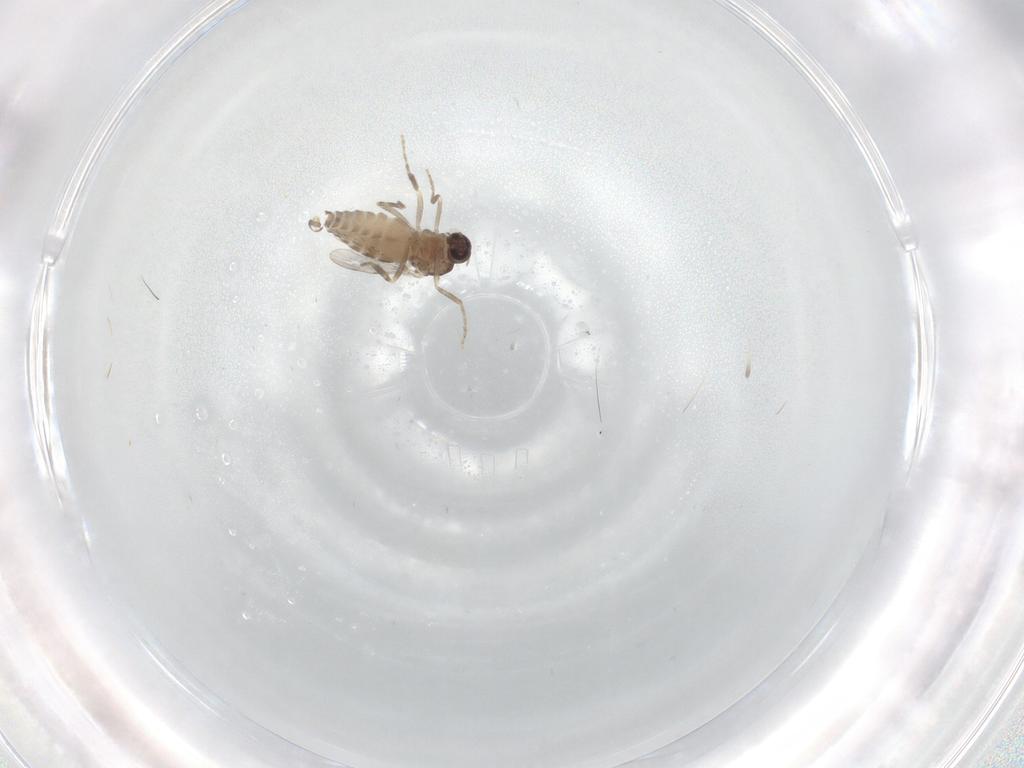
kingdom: Animalia
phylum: Arthropoda
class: Insecta
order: Diptera
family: Ceratopogonidae
